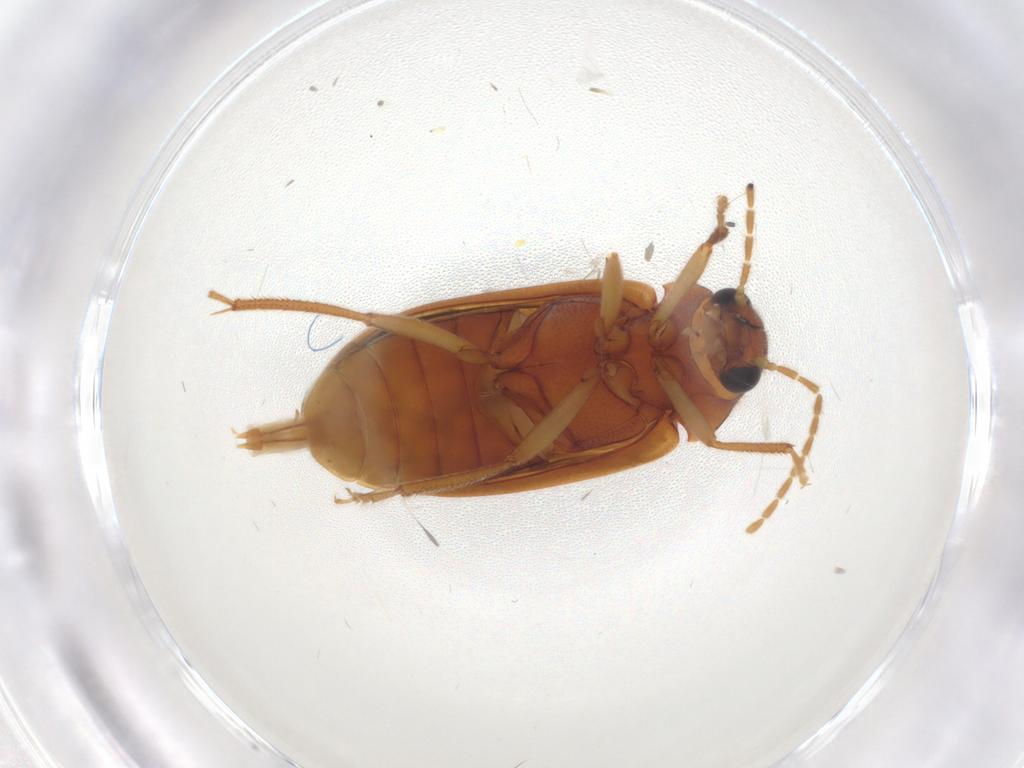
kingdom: Animalia
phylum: Arthropoda
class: Insecta
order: Coleoptera
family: Ptilodactylidae
